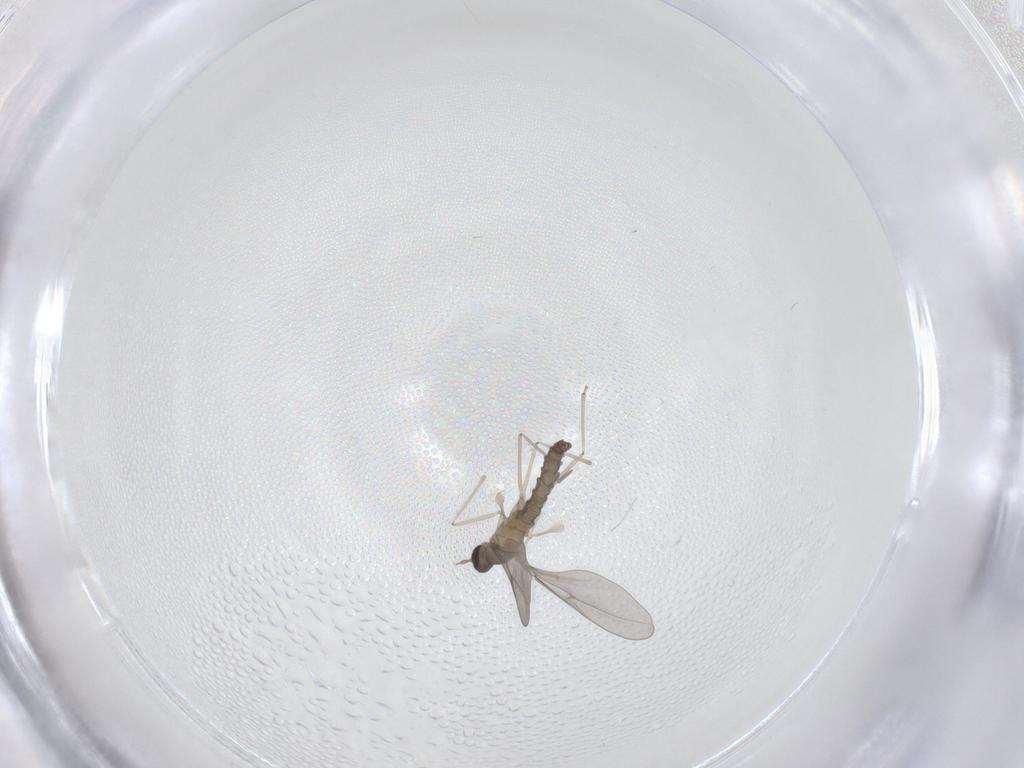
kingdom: Animalia
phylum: Arthropoda
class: Insecta
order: Diptera
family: Cecidomyiidae
